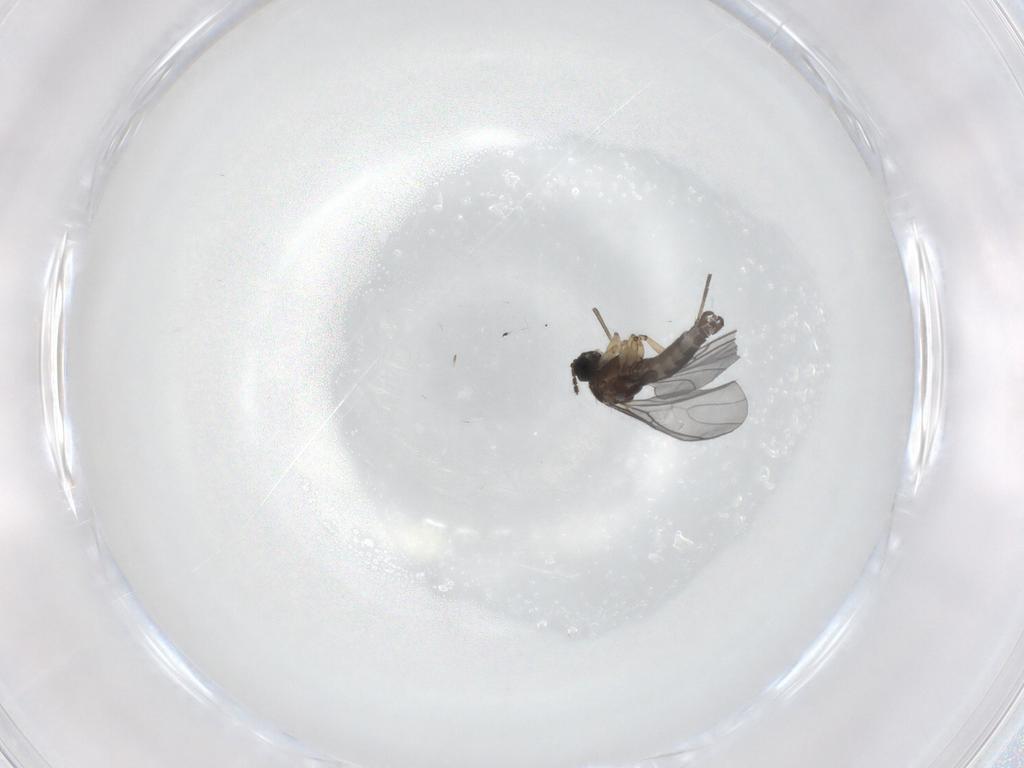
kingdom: Animalia
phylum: Arthropoda
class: Insecta
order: Diptera
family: Sciaridae
